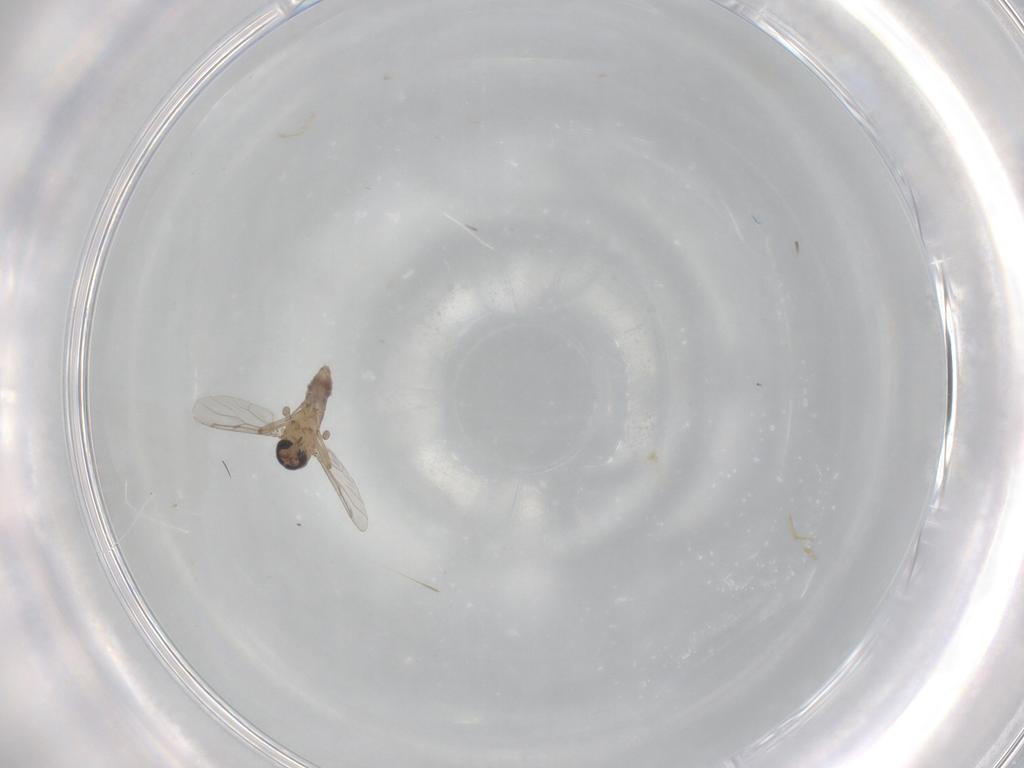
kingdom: Animalia
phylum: Arthropoda
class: Insecta
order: Diptera
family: Ceratopogonidae
